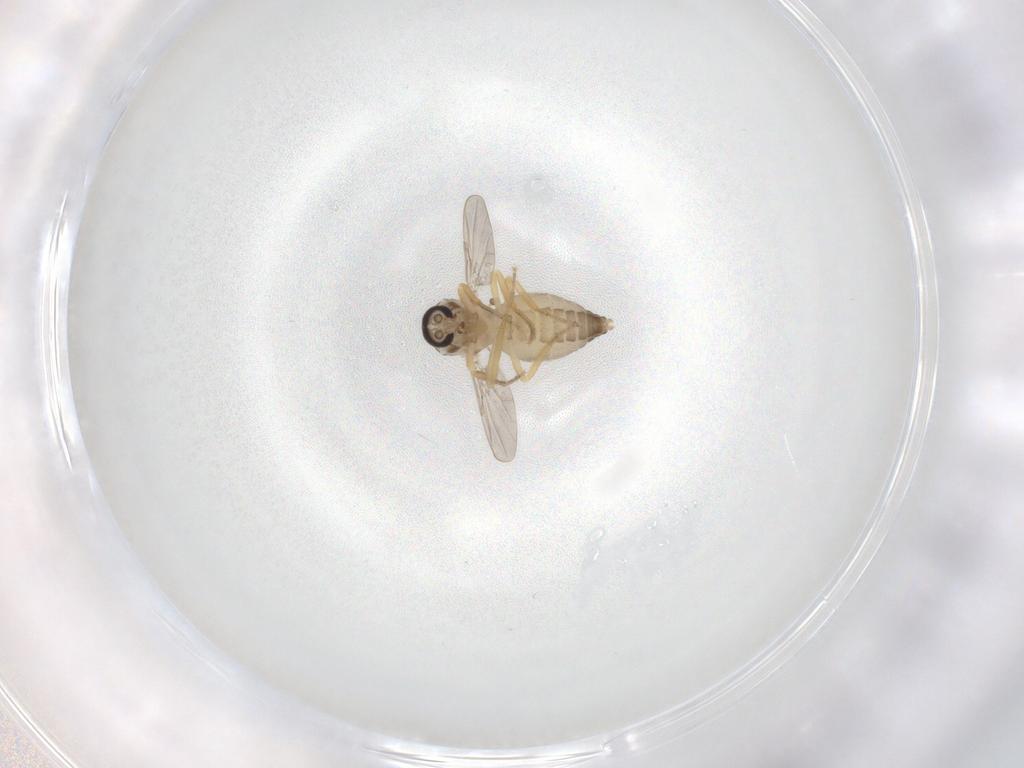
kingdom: Animalia
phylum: Arthropoda
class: Insecta
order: Diptera
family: Ceratopogonidae
